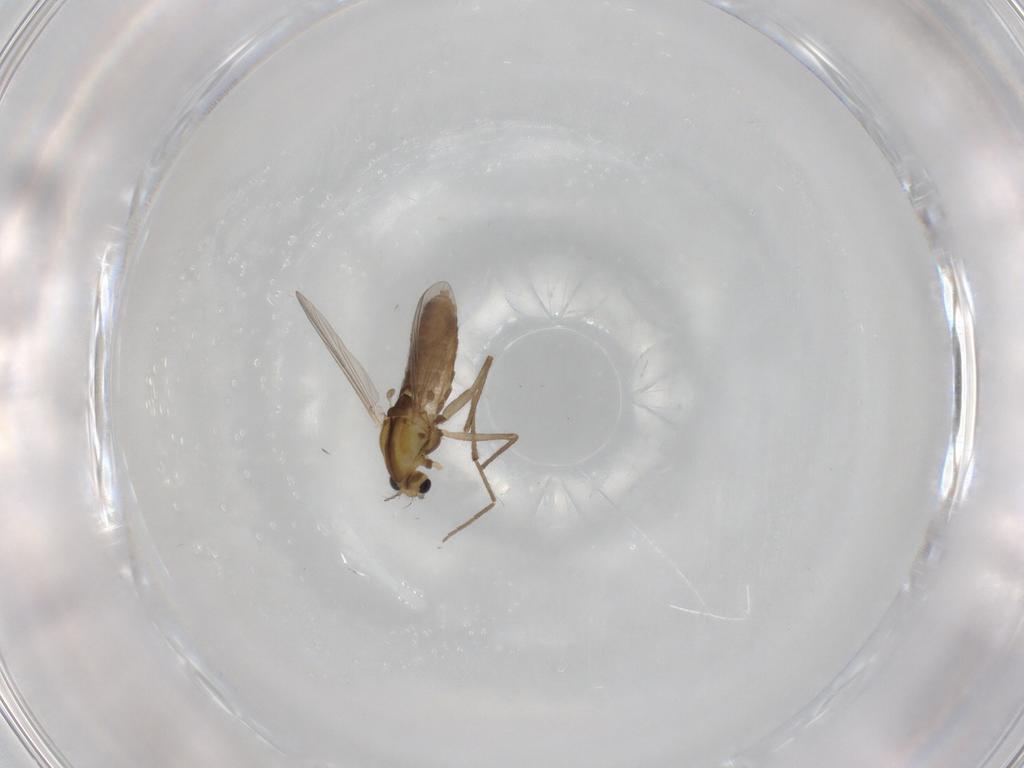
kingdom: Animalia
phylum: Arthropoda
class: Insecta
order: Diptera
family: Chironomidae
